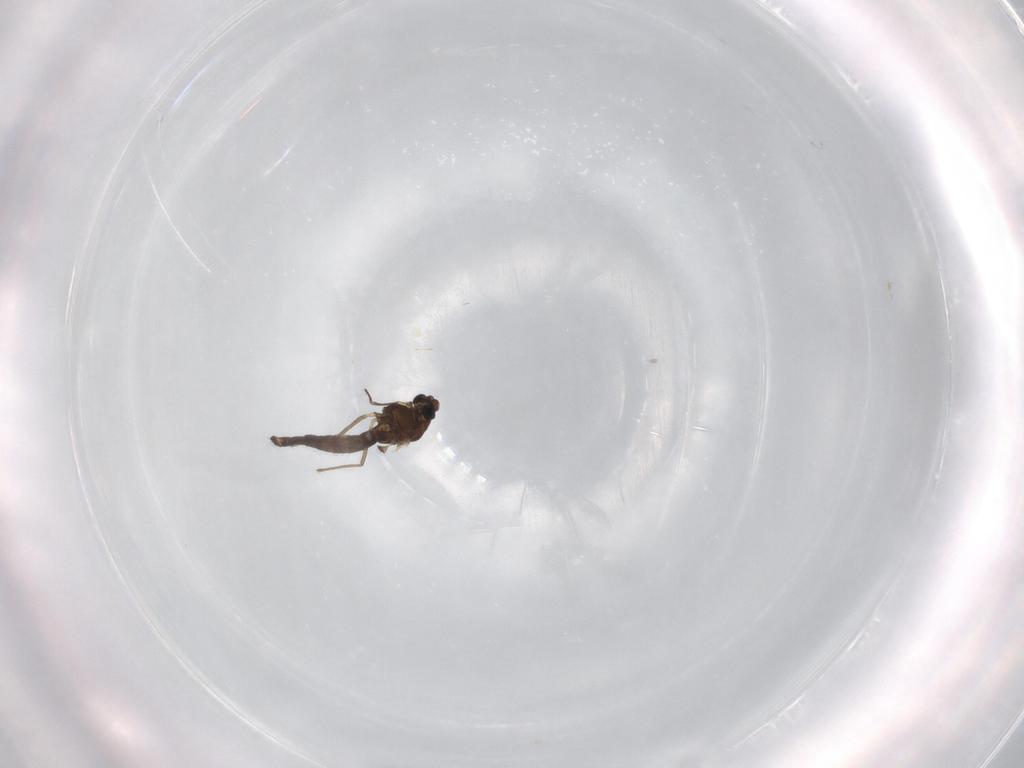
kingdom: Animalia
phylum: Arthropoda
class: Insecta
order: Diptera
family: Chironomidae
